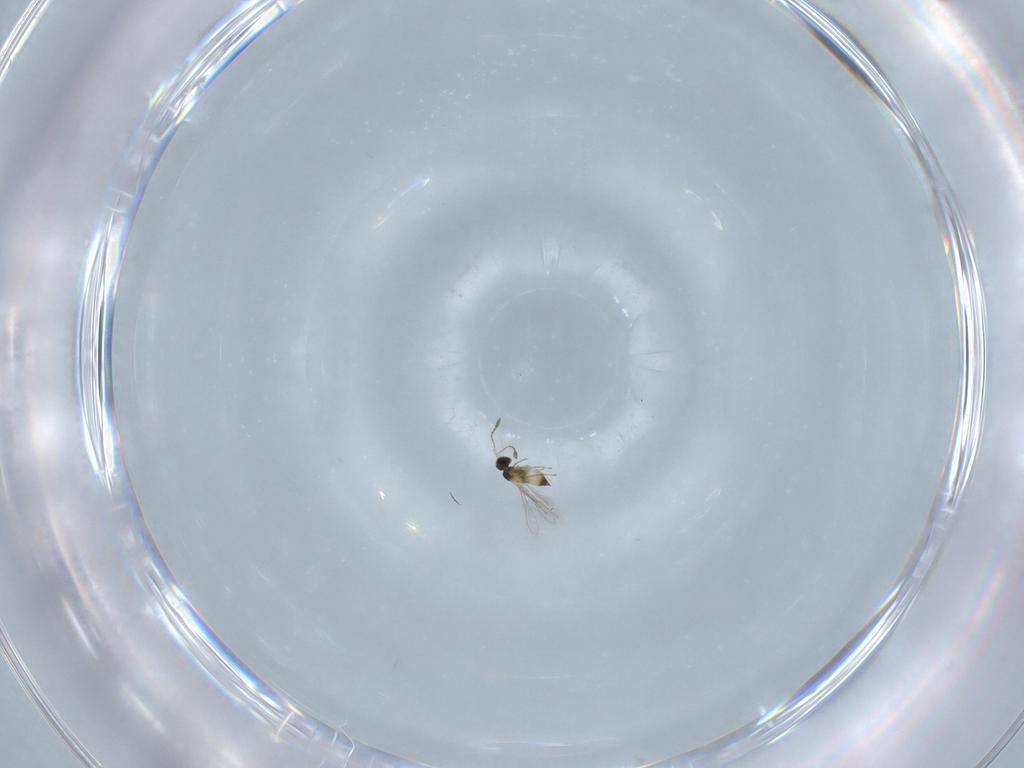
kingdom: Animalia
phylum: Arthropoda
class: Insecta
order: Hymenoptera
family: Mymaridae
